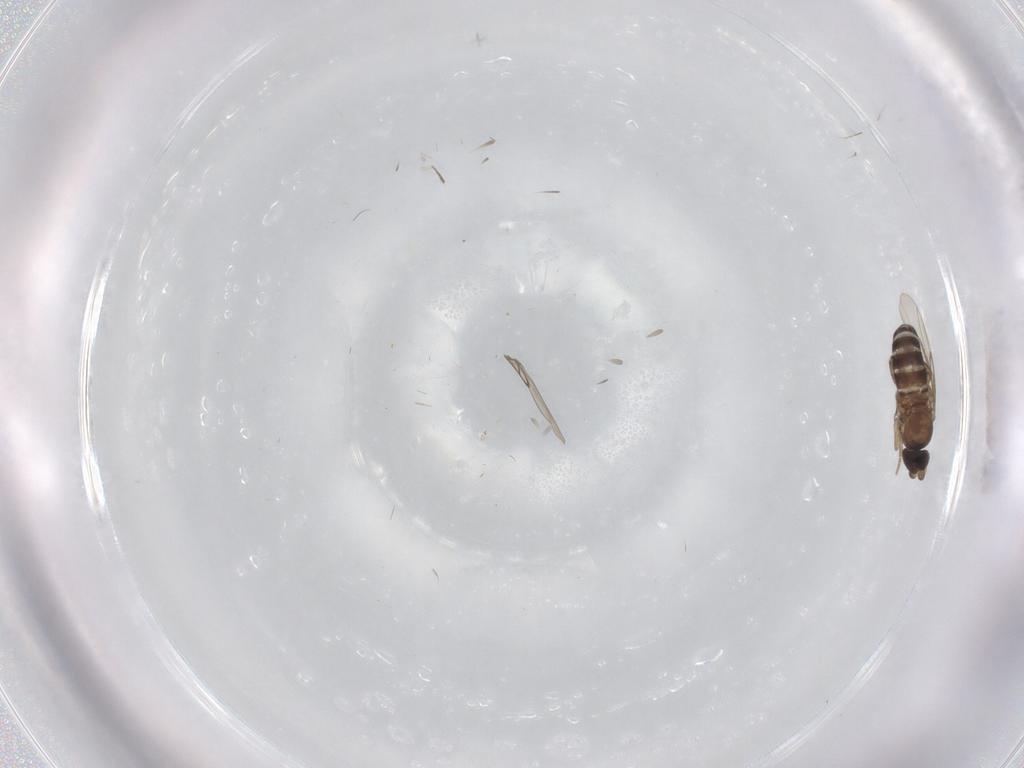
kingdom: Animalia
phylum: Arthropoda
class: Insecta
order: Diptera
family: Phoridae
